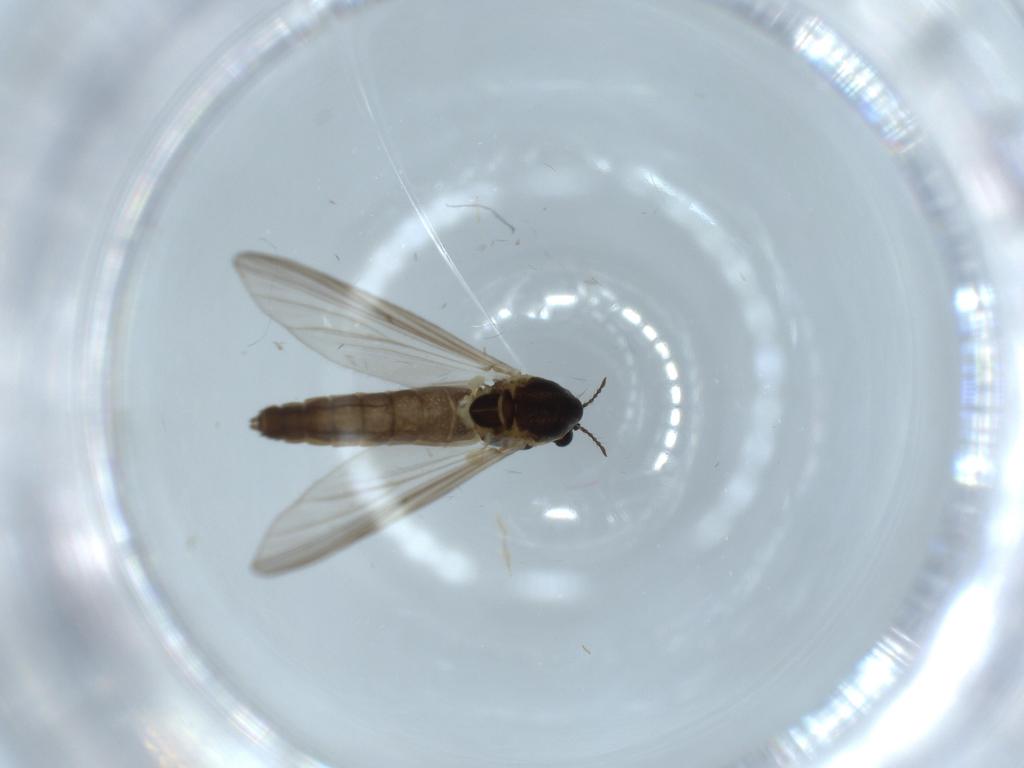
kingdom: Animalia
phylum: Arthropoda
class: Insecta
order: Diptera
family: Chironomidae
